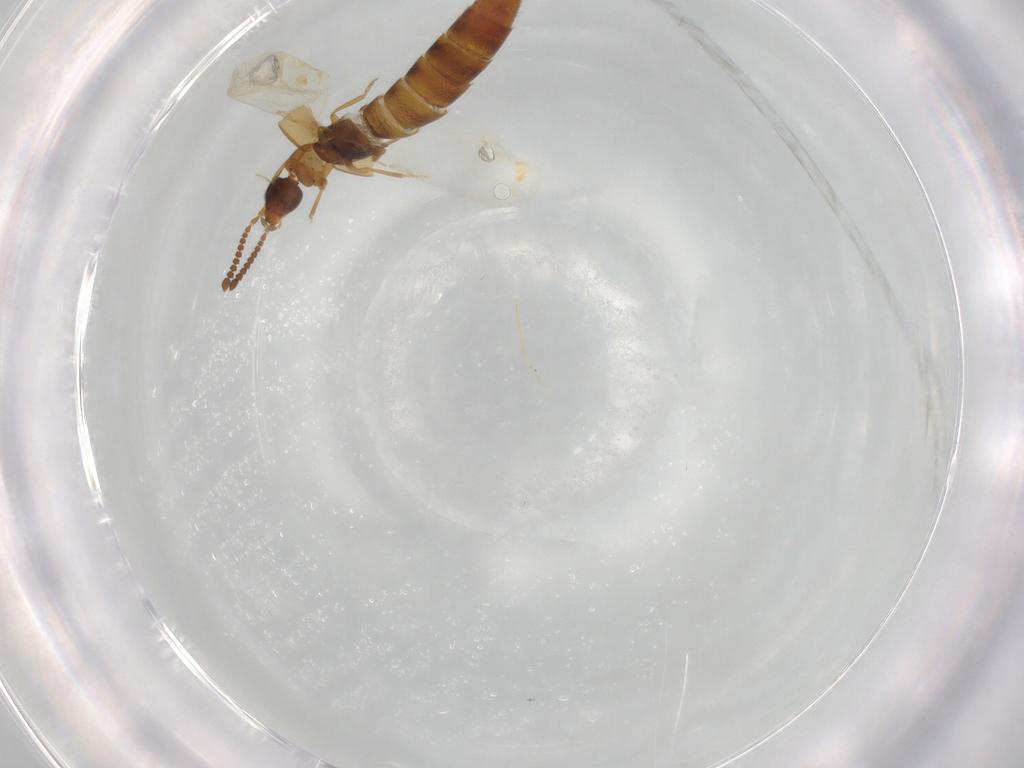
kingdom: Animalia
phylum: Arthropoda
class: Insecta
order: Coleoptera
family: Staphylinidae
